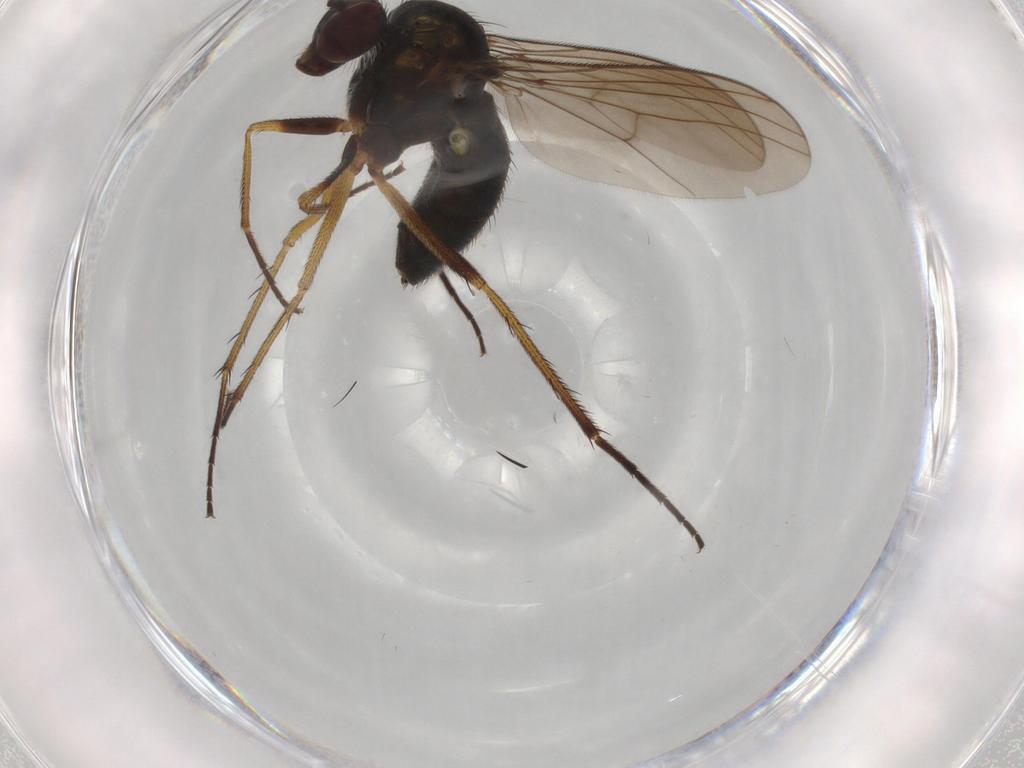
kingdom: Animalia
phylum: Arthropoda
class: Insecta
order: Diptera
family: Dolichopodidae
